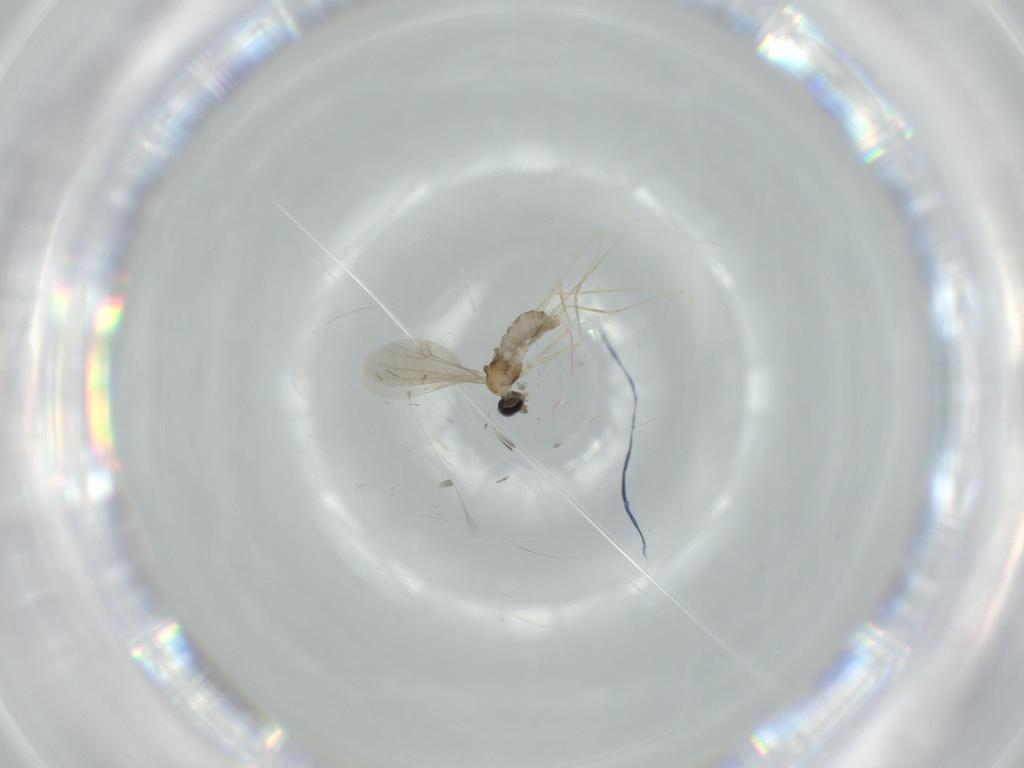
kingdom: Animalia
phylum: Arthropoda
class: Insecta
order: Diptera
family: Cecidomyiidae
